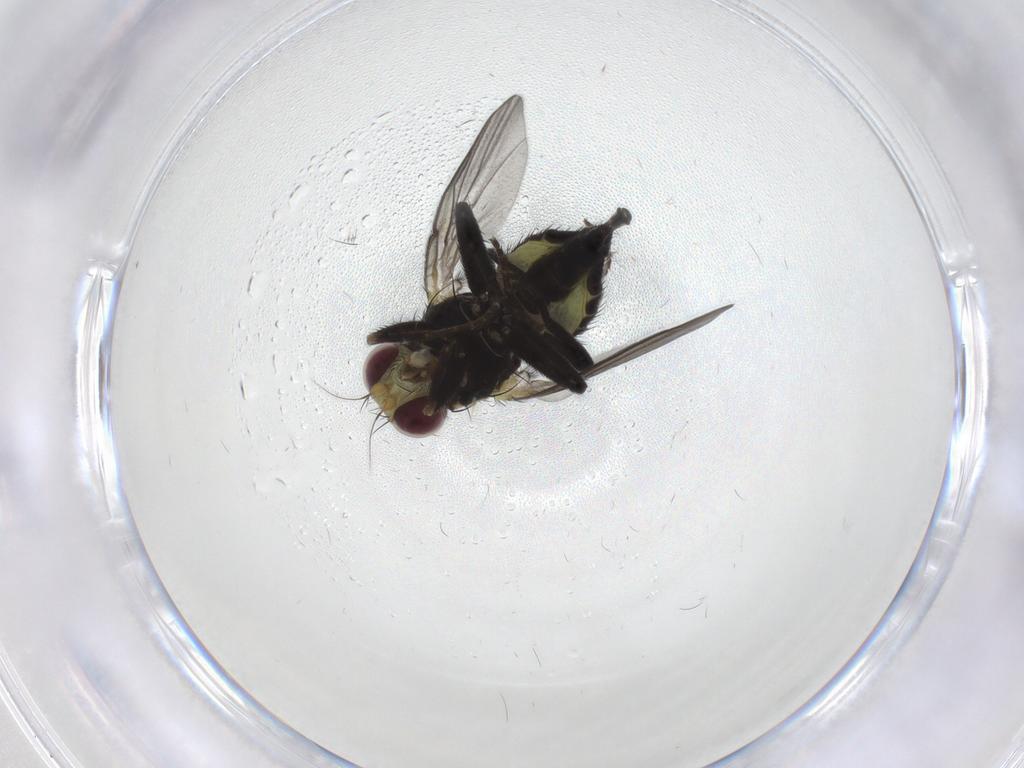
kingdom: Animalia
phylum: Arthropoda
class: Insecta
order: Diptera
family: Agromyzidae
